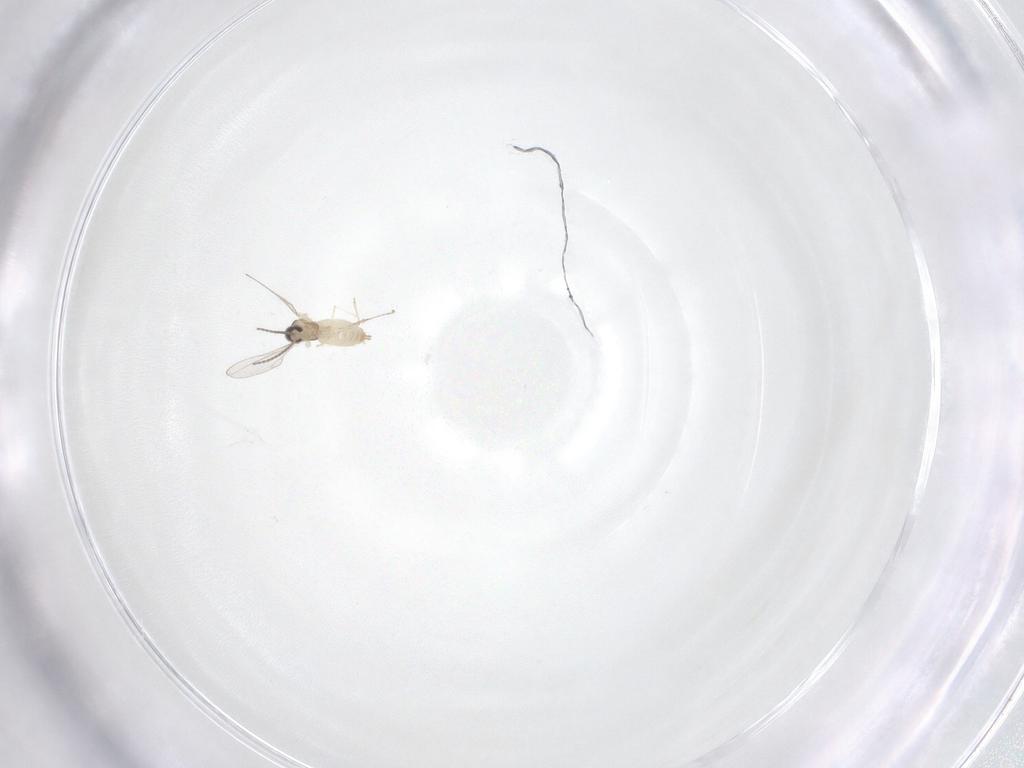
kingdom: Animalia
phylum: Arthropoda
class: Insecta
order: Diptera
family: Cecidomyiidae
